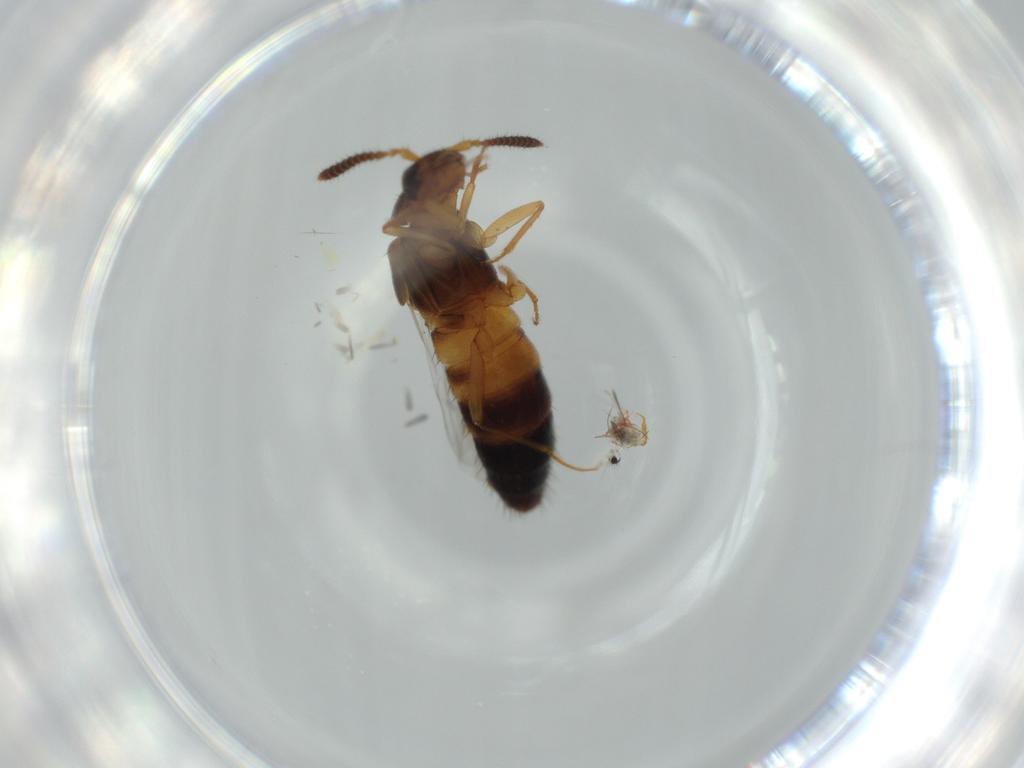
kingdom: Animalia
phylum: Arthropoda
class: Insecta
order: Coleoptera
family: Staphylinidae
